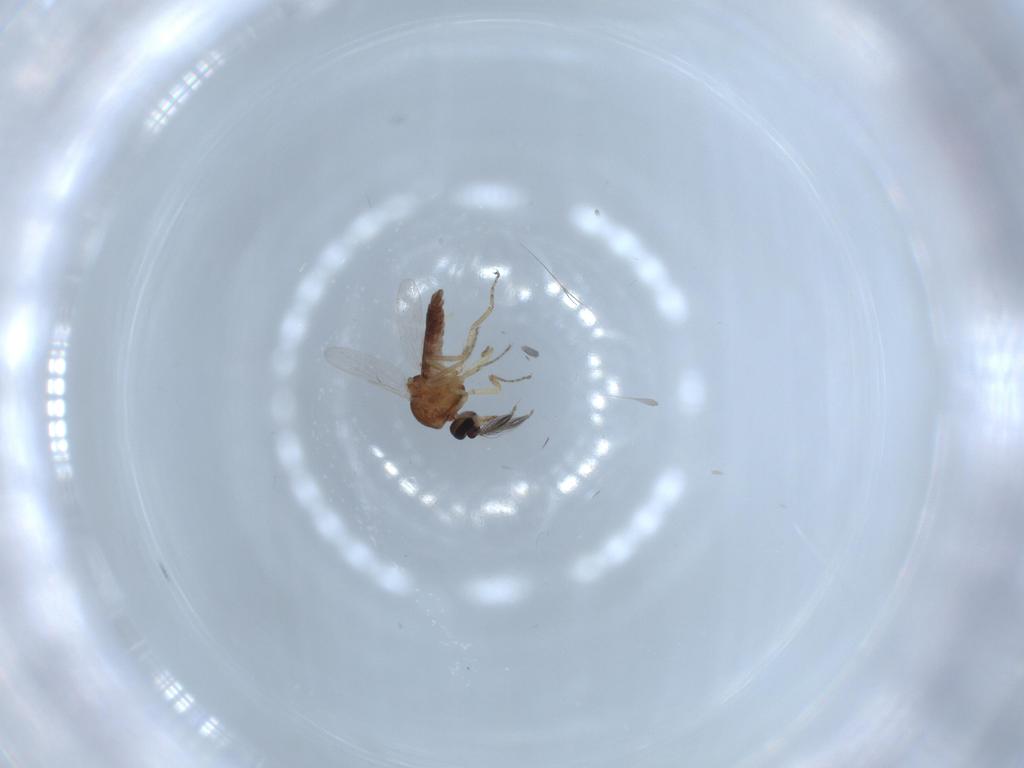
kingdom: Animalia
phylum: Arthropoda
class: Insecta
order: Diptera
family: Ceratopogonidae
